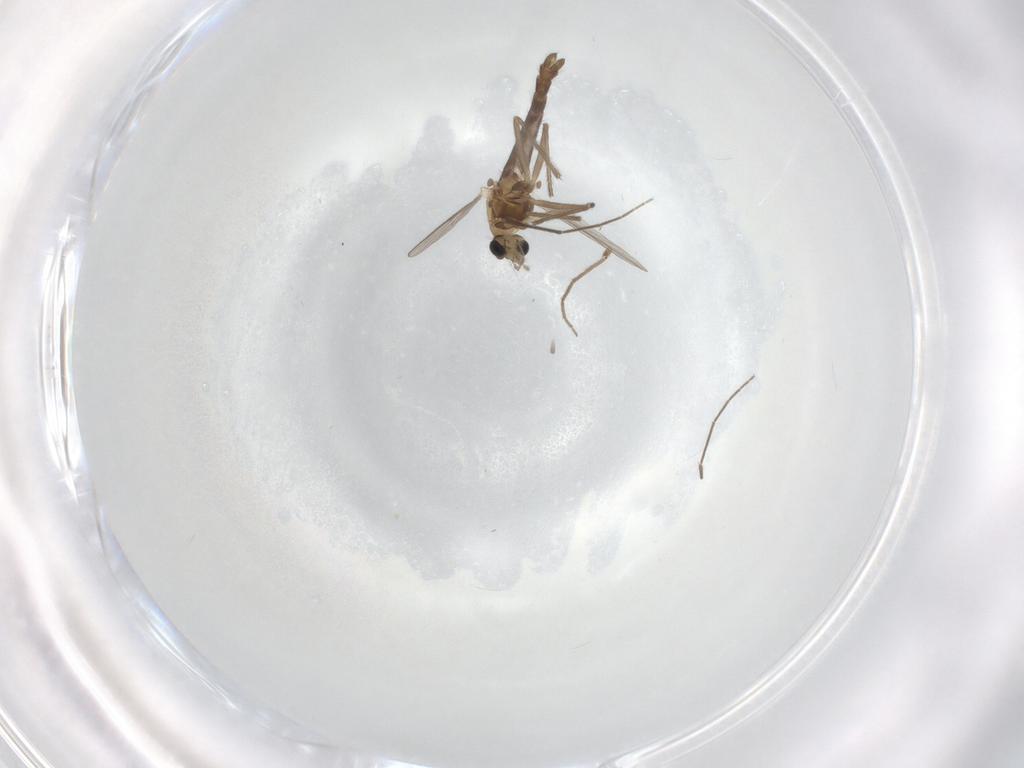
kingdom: Animalia
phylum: Arthropoda
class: Insecta
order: Diptera
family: Chironomidae
